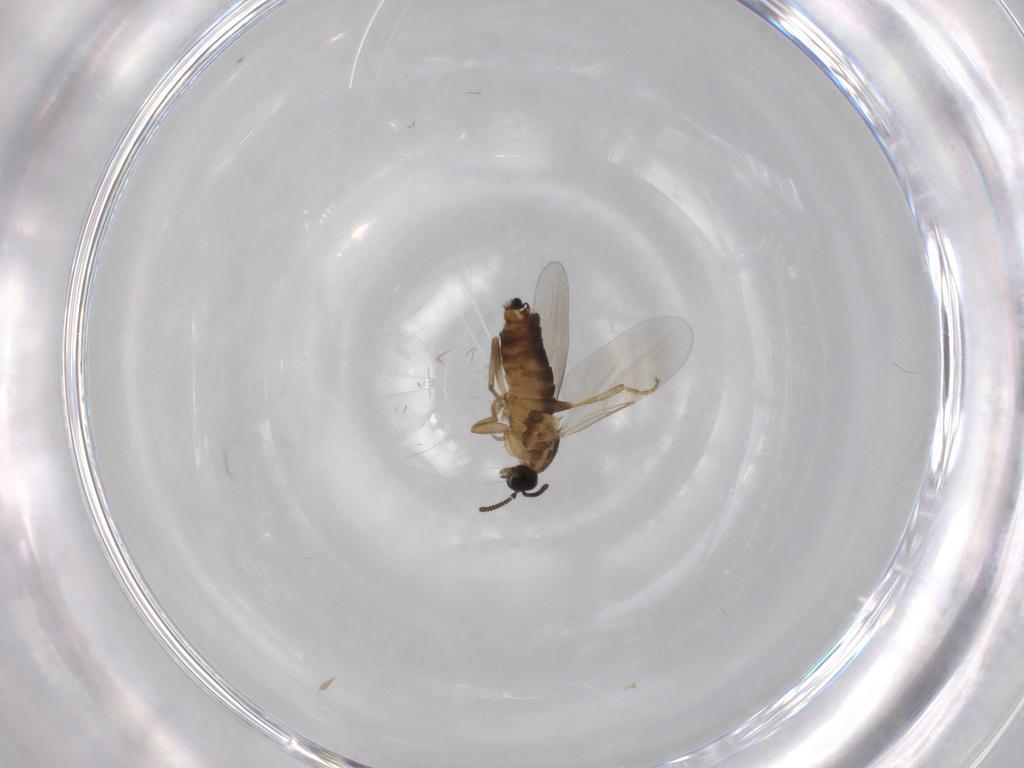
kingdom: Animalia
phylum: Arthropoda
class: Insecta
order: Diptera
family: Scatopsidae
